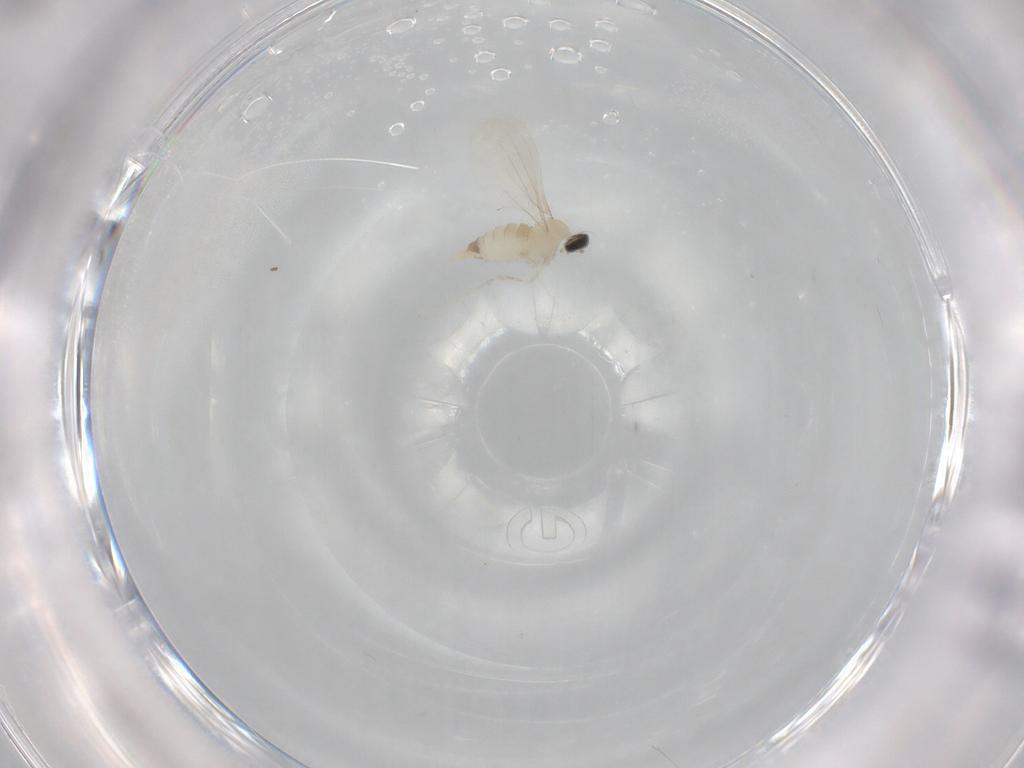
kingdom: Animalia
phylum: Arthropoda
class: Insecta
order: Diptera
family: Cecidomyiidae
